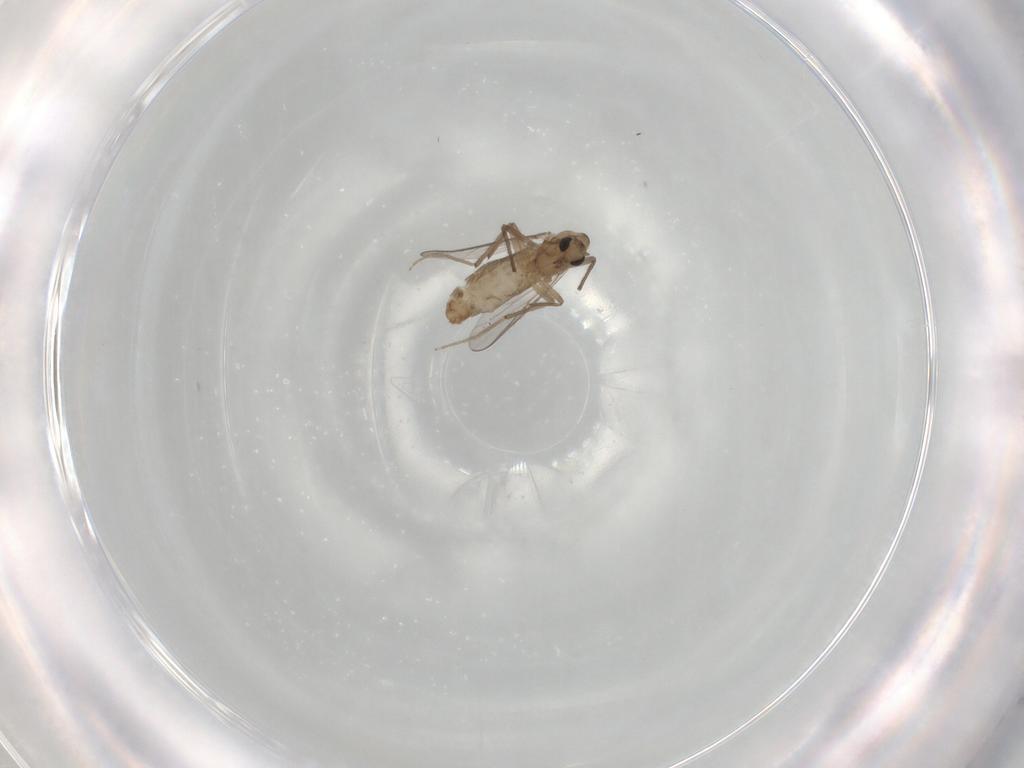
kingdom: Animalia
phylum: Arthropoda
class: Insecta
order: Diptera
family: Chironomidae
